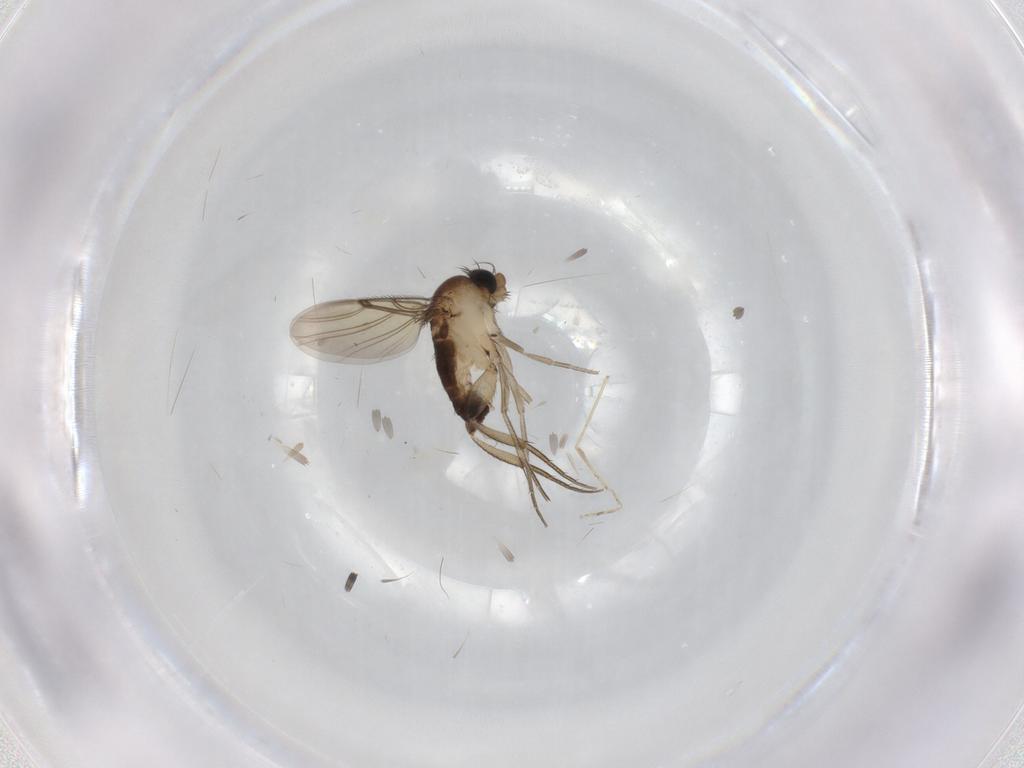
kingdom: Animalia
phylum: Arthropoda
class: Insecta
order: Diptera
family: Phoridae
